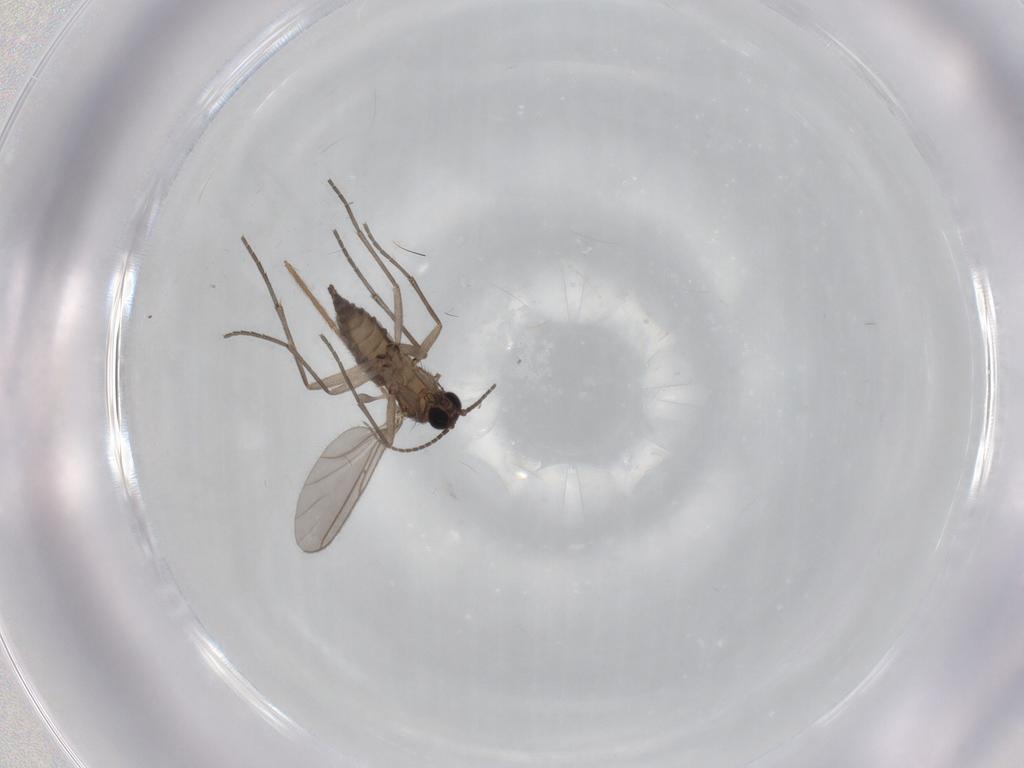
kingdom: Animalia
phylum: Arthropoda
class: Insecta
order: Diptera
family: Sciaridae
